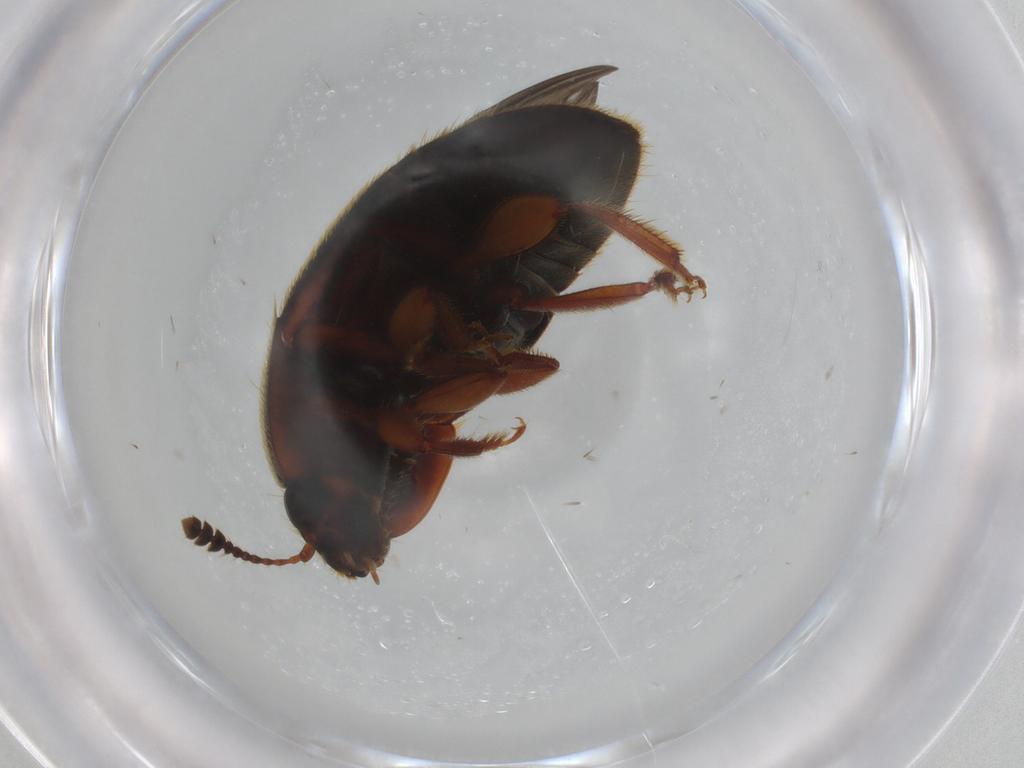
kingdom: Animalia
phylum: Arthropoda
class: Insecta
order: Coleoptera
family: Nitidulidae
